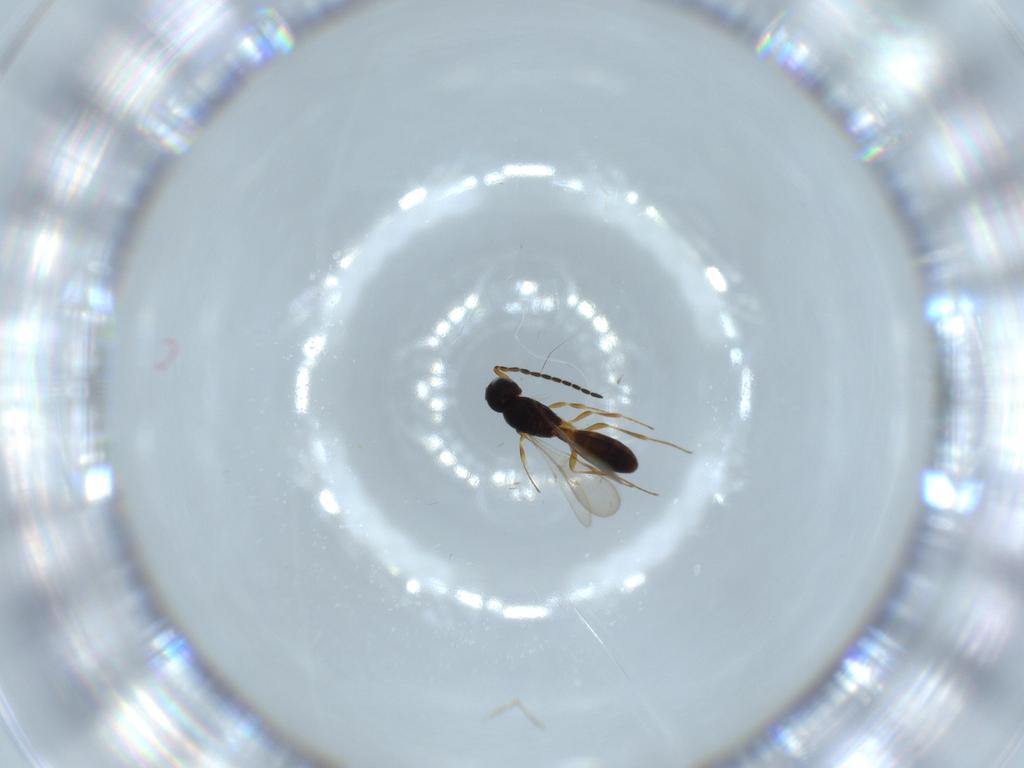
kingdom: Animalia
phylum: Arthropoda
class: Insecta
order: Hymenoptera
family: Scelionidae
